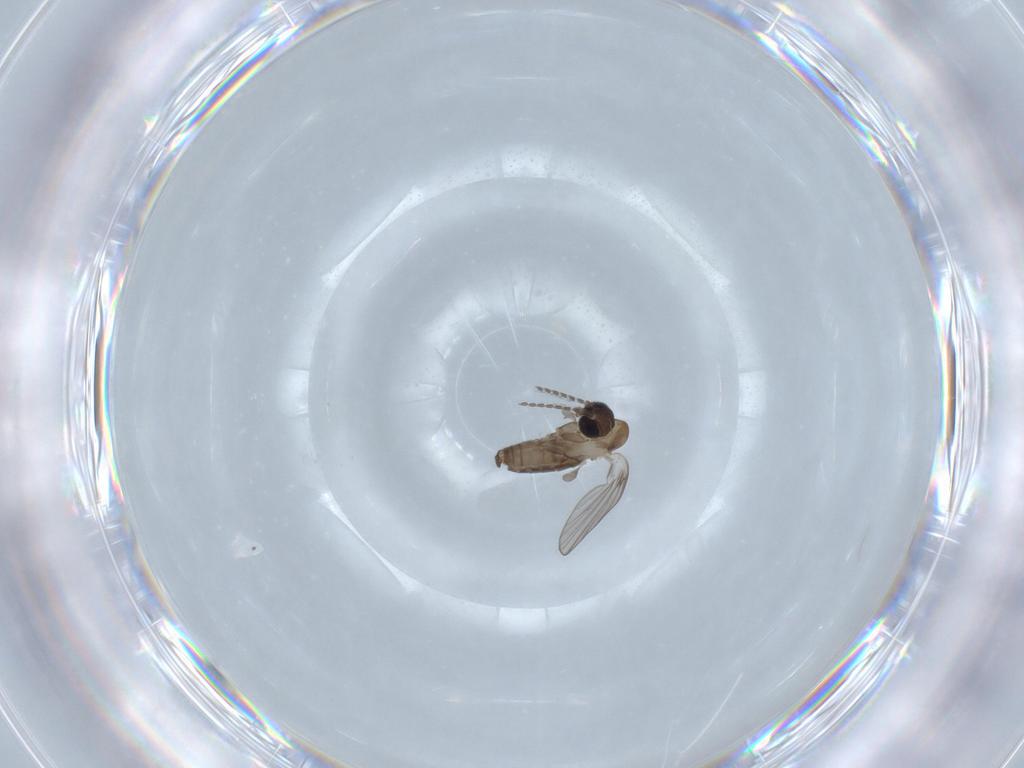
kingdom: Animalia
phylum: Arthropoda
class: Insecta
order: Diptera
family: Psychodidae
